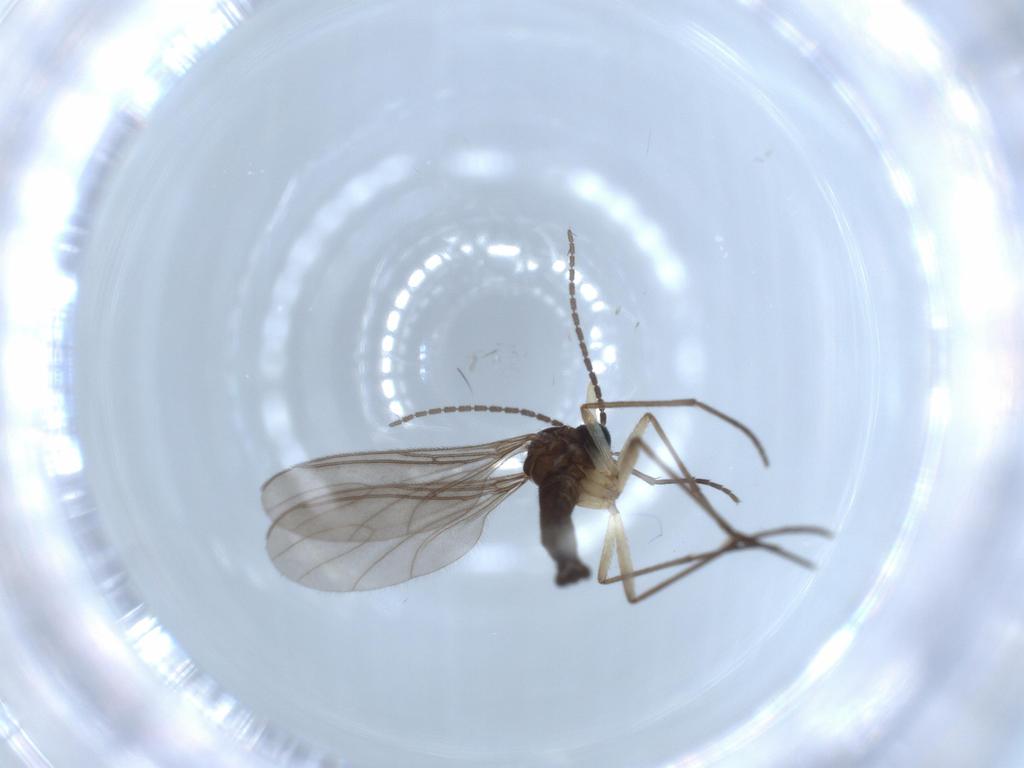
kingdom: Animalia
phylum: Arthropoda
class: Insecta
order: Diptera
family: Sciaridae
